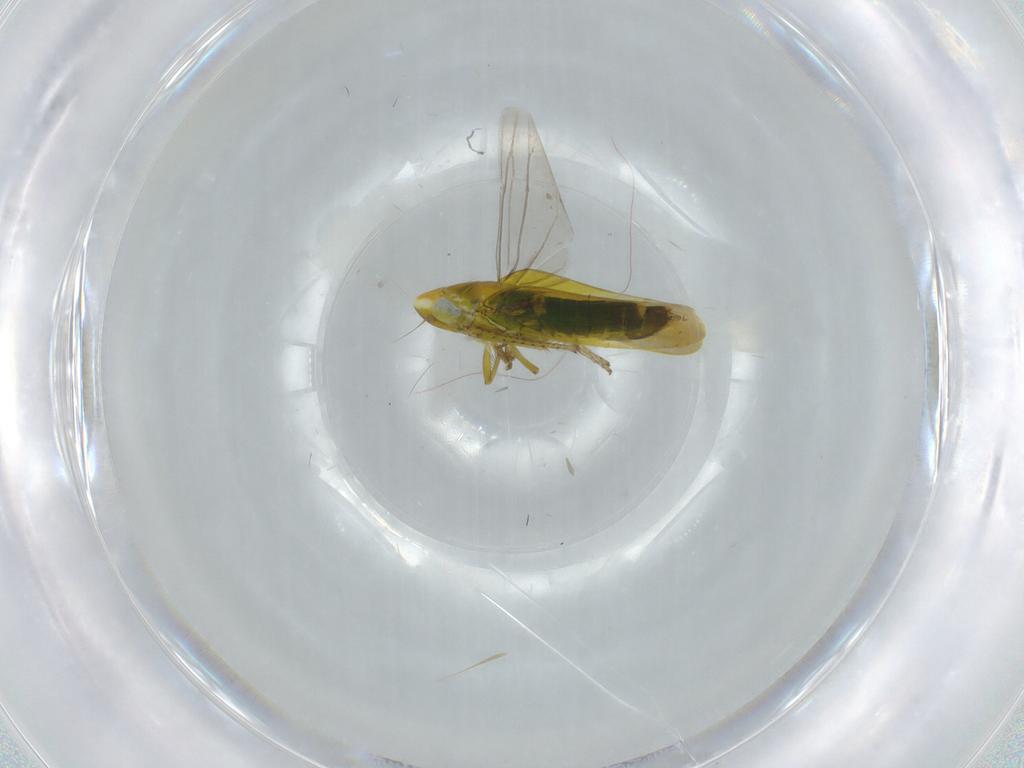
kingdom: Animalia
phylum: Arthropoda
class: Insecta
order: Hemiptera
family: Cicadellidae
